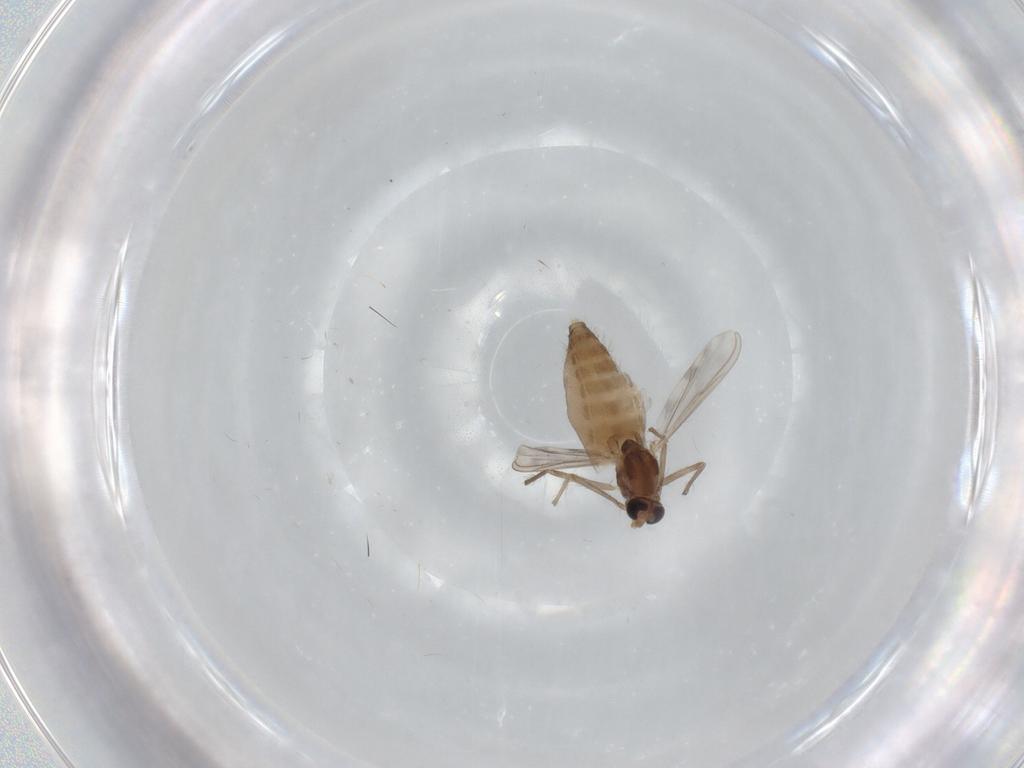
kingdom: Animalia
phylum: Arthropoda
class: Insecta
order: Diptera
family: Chironomidae
